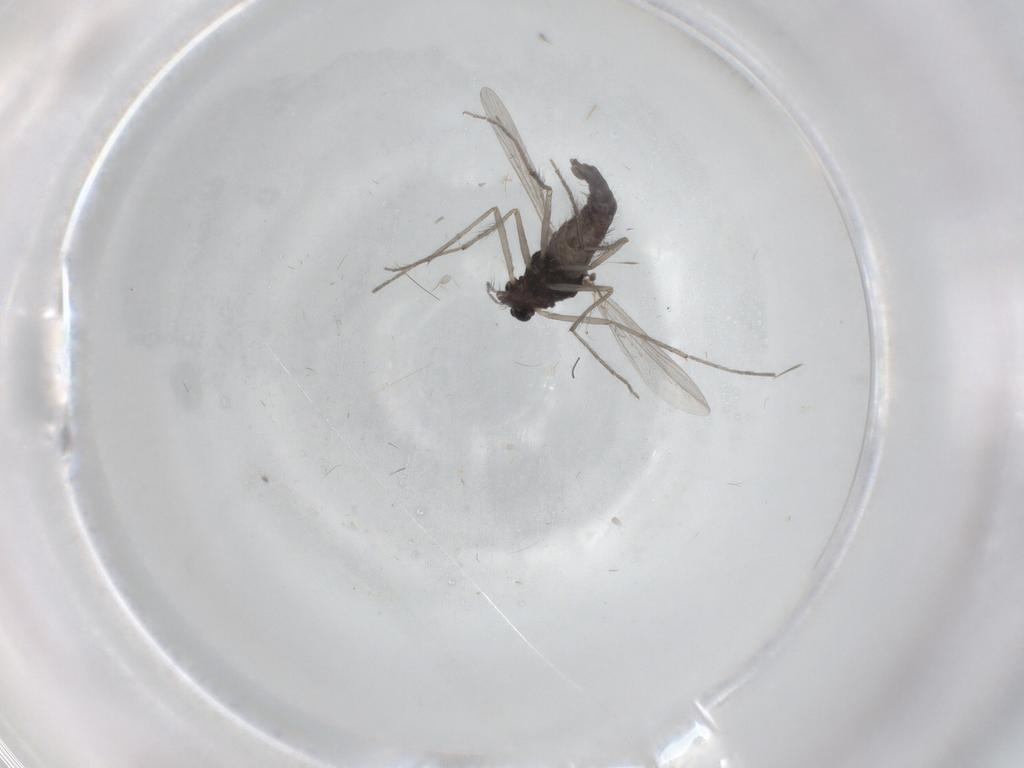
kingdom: Animalia
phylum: Arthropoda
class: Insecta
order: Diptera
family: Chironomidae
